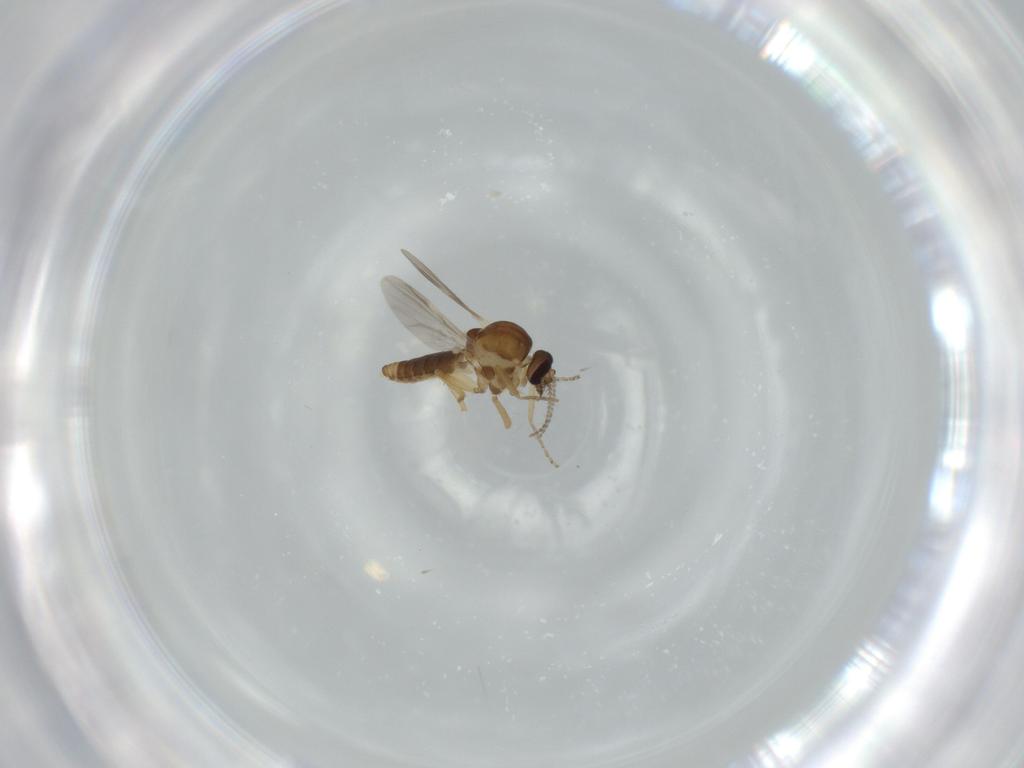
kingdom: Animalia
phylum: Arthropoda
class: Insecta
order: Diptera
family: Ceratopogonidae
